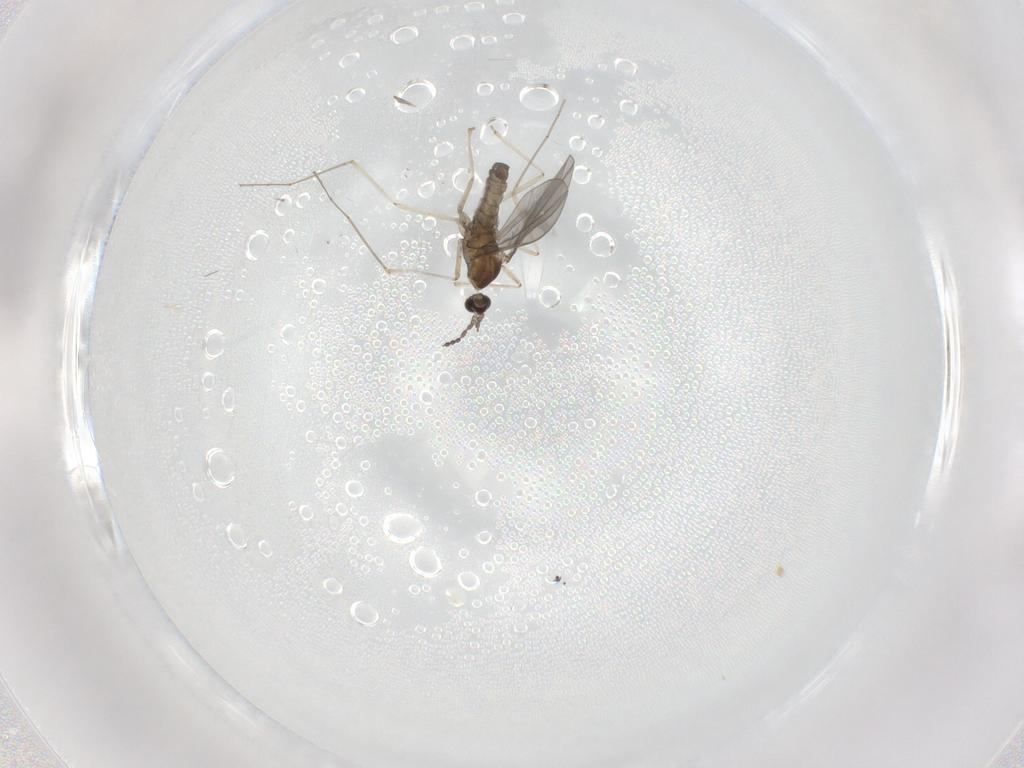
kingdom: Animalia
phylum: Arthropoda
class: Insecta
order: Diptera
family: Cecidomyiidae
